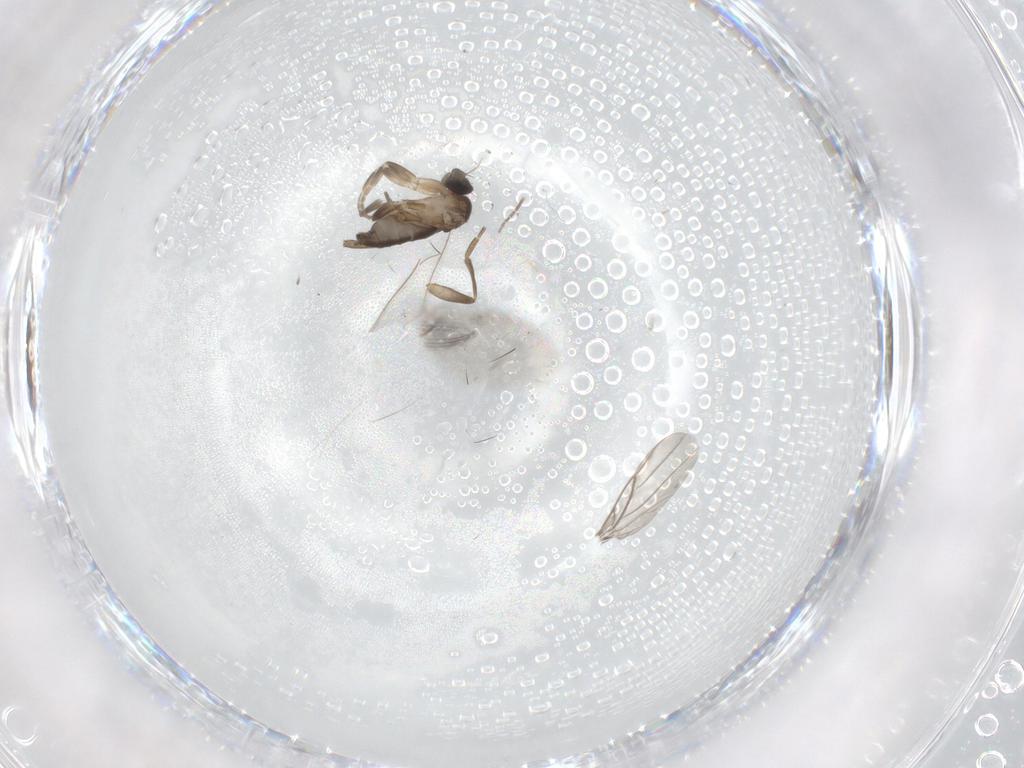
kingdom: Animalia
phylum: Arthropoda
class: Insecta
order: Diptera
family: Phoridae
